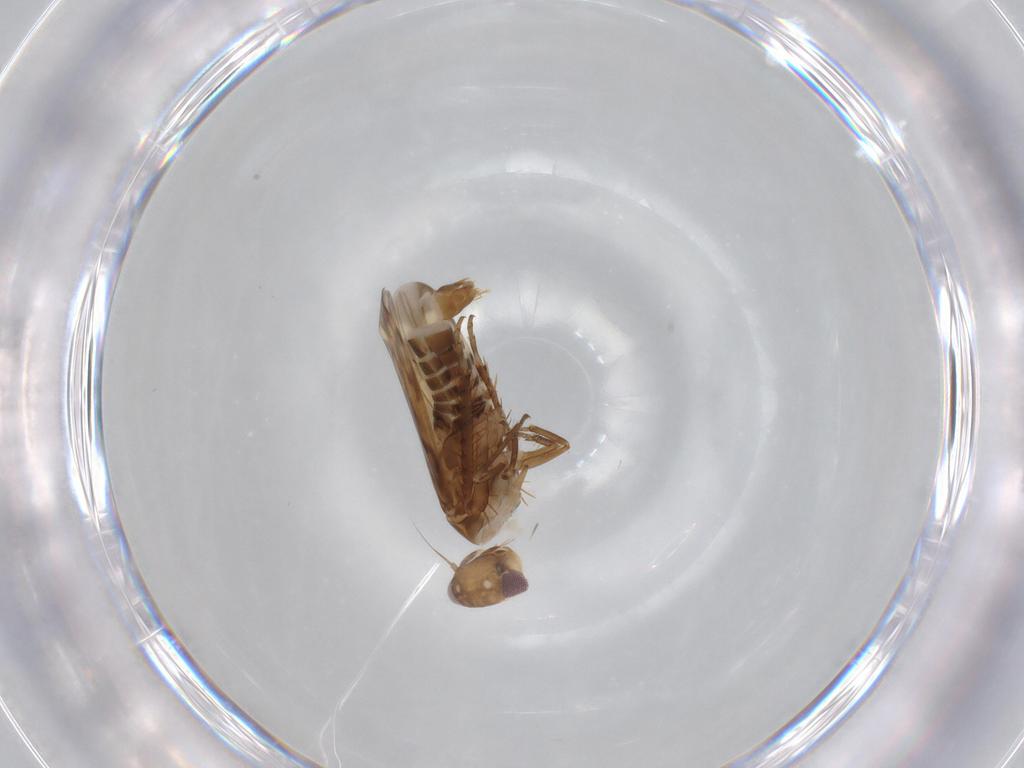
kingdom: Animalia
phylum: Arthropoda
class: Insecta
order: Hemiptera
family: Cicadellidae
